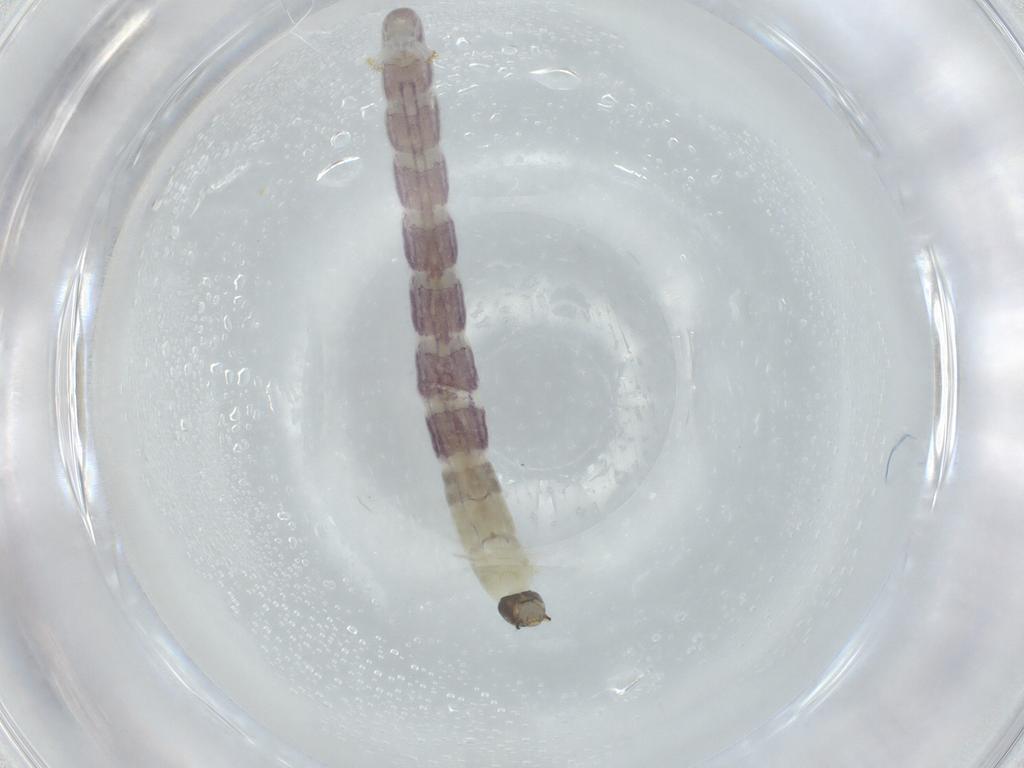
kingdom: Animalia
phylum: Arthropoda
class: Insecta
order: Diptera
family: Chironomidae
